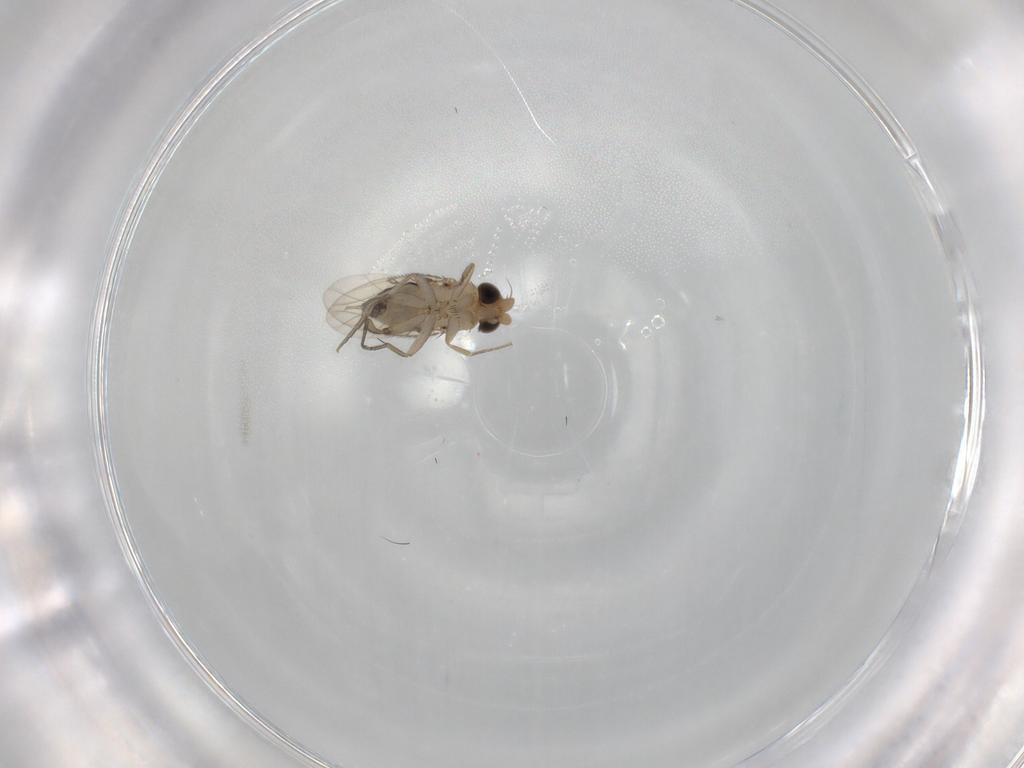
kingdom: Animalia
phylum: Arthropoda
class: Insecta
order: Diptera
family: Phoridae
